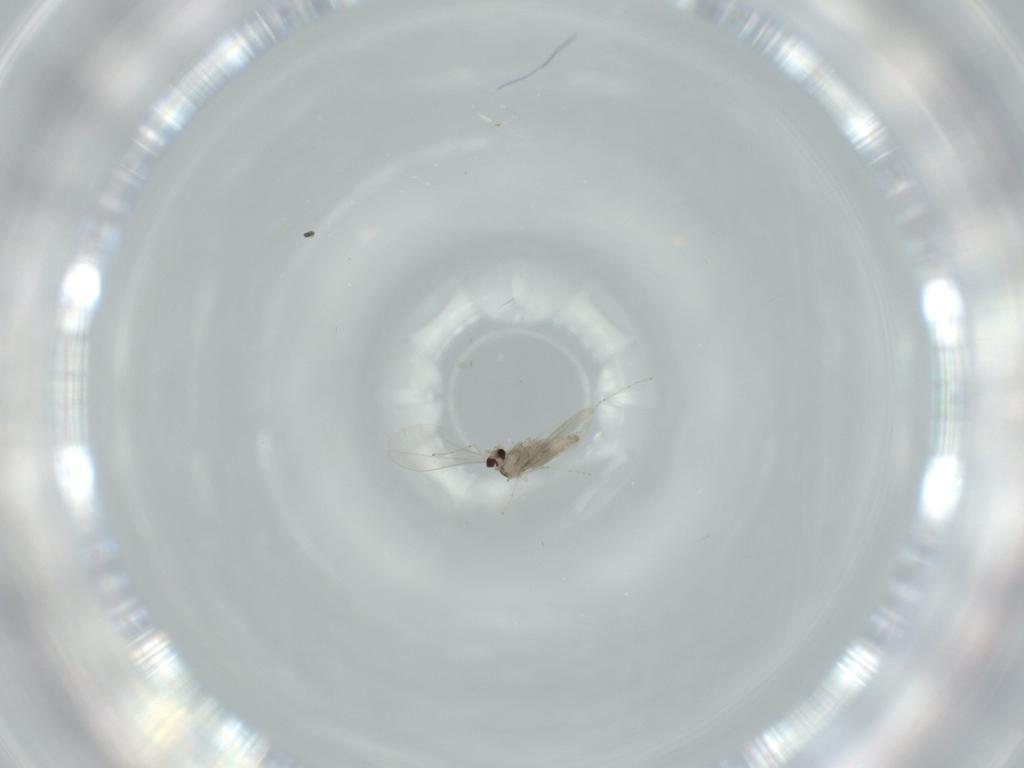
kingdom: Animalia
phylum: Arthropoda
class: Insecta
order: Diptera
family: Cecidomyiidae
